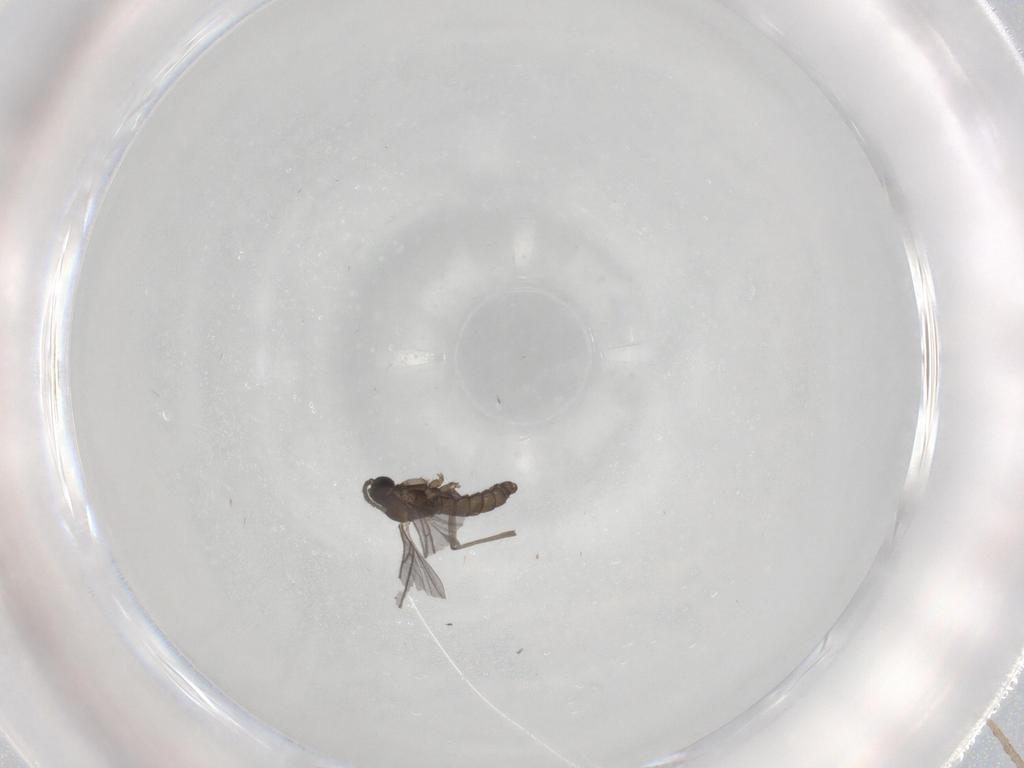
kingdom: Animalia
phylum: Arthropoda
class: Insecta
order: Diptera
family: Sciaridae
